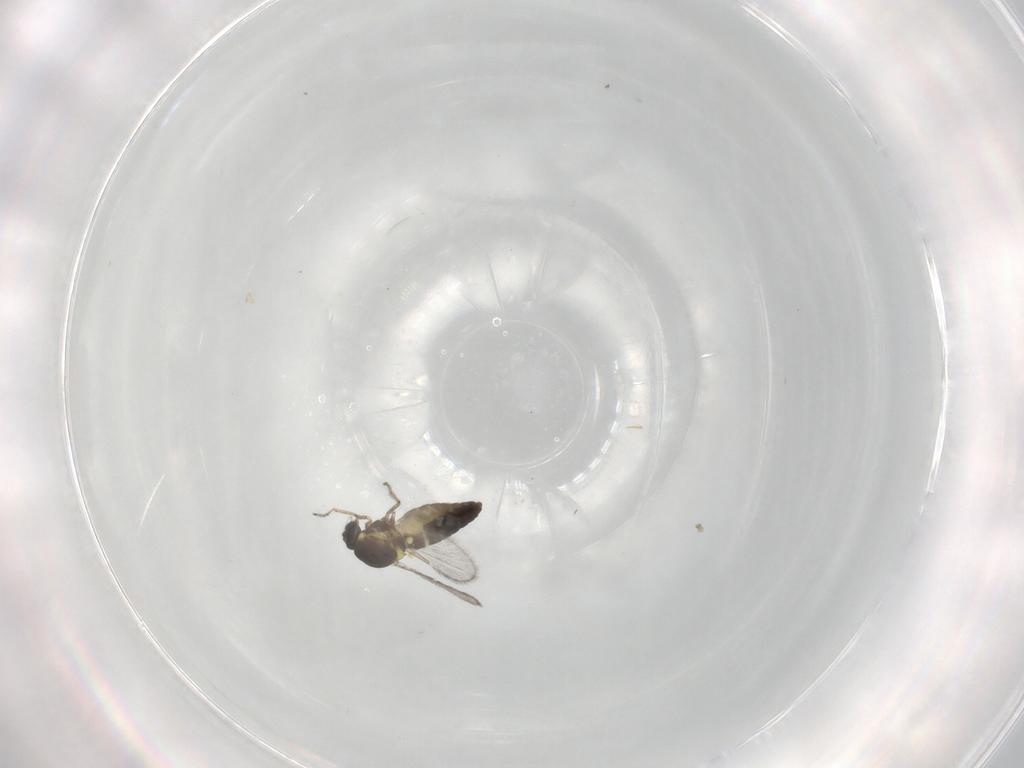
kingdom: Animalia
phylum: Arthropoda
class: Insecta
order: Diptera
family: Ceratopogonidae
